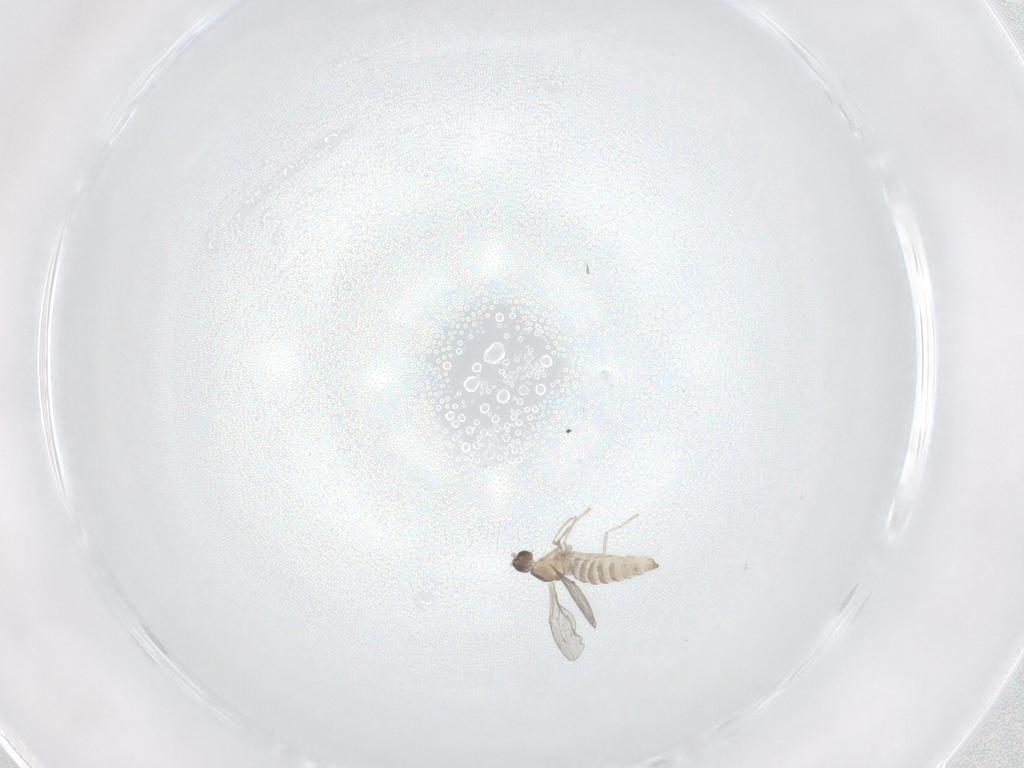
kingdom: Animalia
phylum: Arthropoda
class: Insecta
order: Diptera
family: Cecidomyiidae
